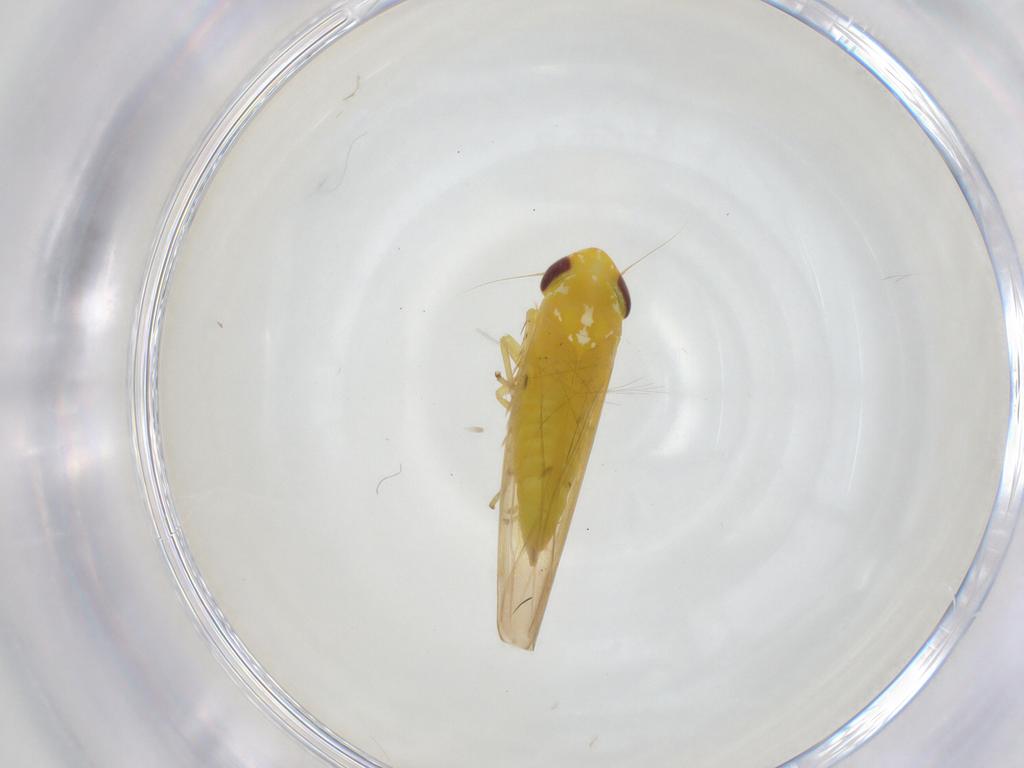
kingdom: Animalia
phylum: Arthropoda
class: Insecta
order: Hemiptera
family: Cicadellidae
